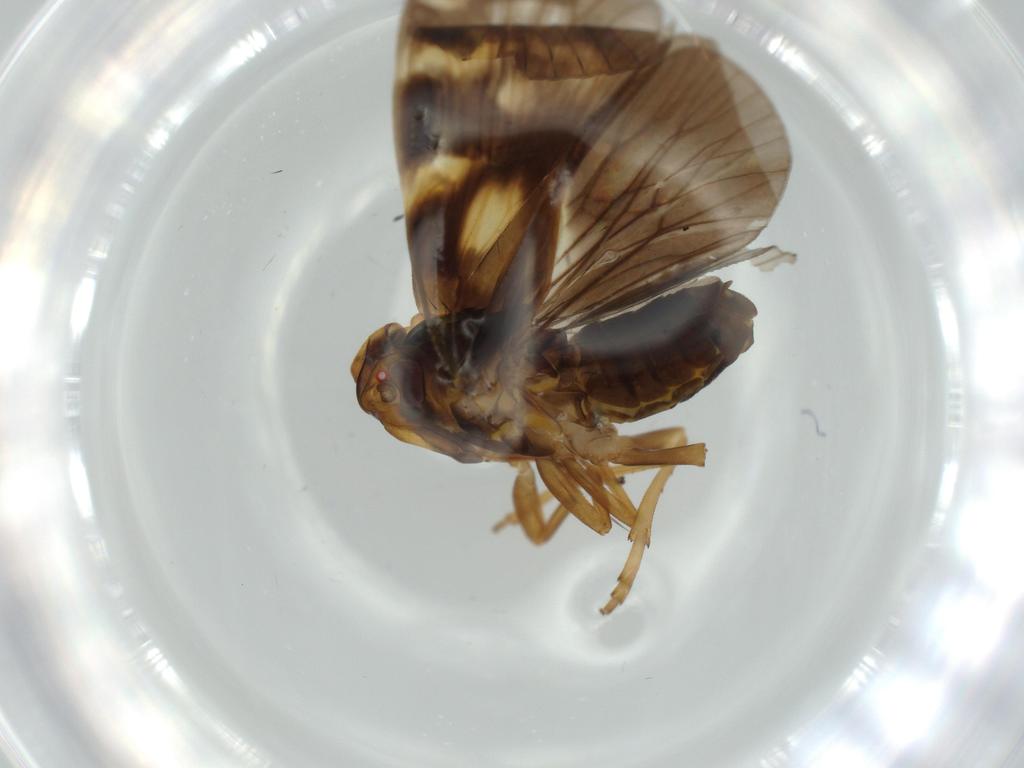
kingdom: Animalia
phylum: Arthropoda
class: Insecta
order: Hemiptera
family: Cixiidae
